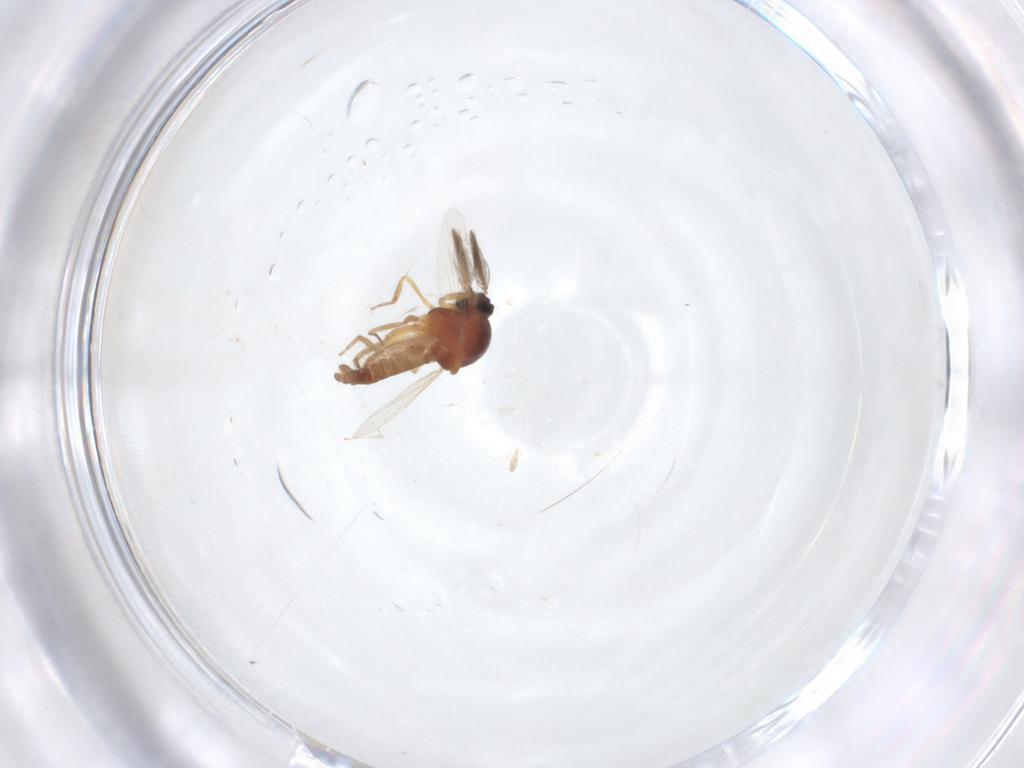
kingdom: Animalia
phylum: Arthropoda
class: Insecta
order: Diptera
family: Ceratopogonidae
